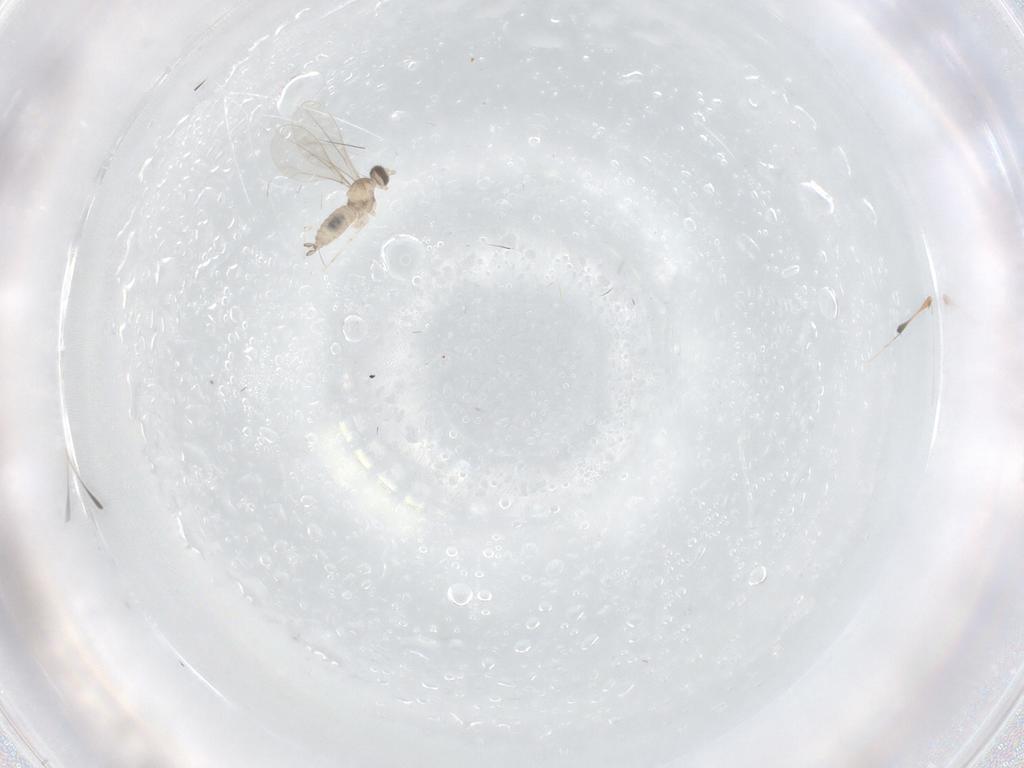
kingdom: Animalia
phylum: Arthropoda
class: Insecta
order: Diptera
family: Cecidomyiidae
